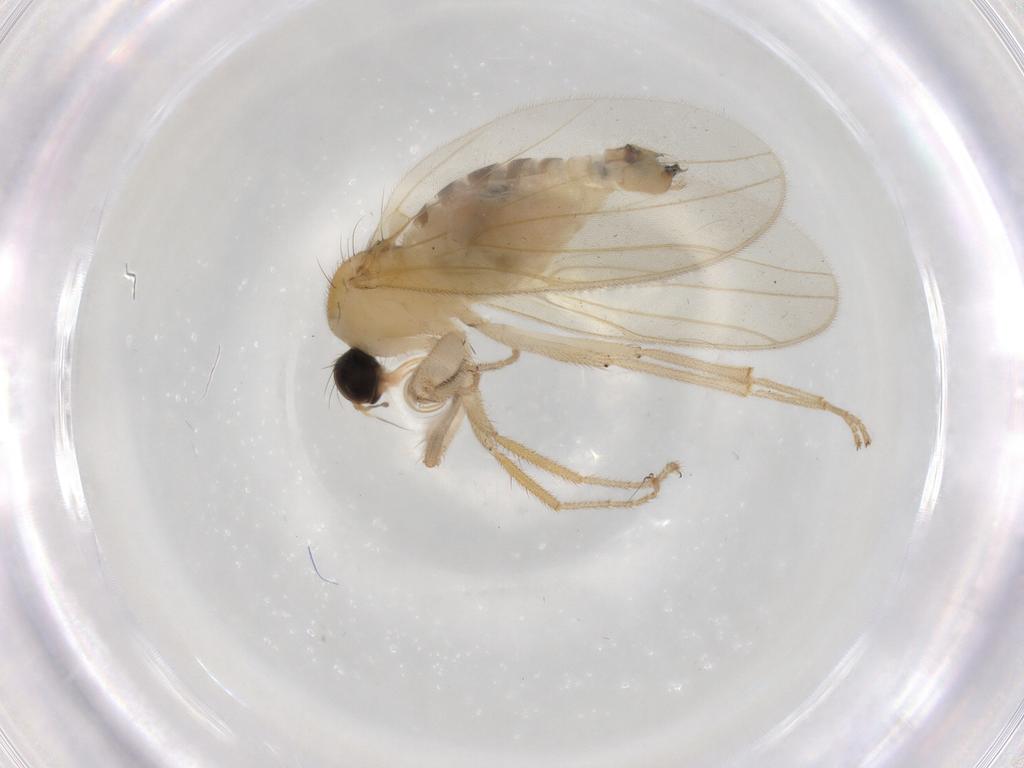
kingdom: Animalia
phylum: Arthropoda
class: Insecta
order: Diptera
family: Hybotidae
